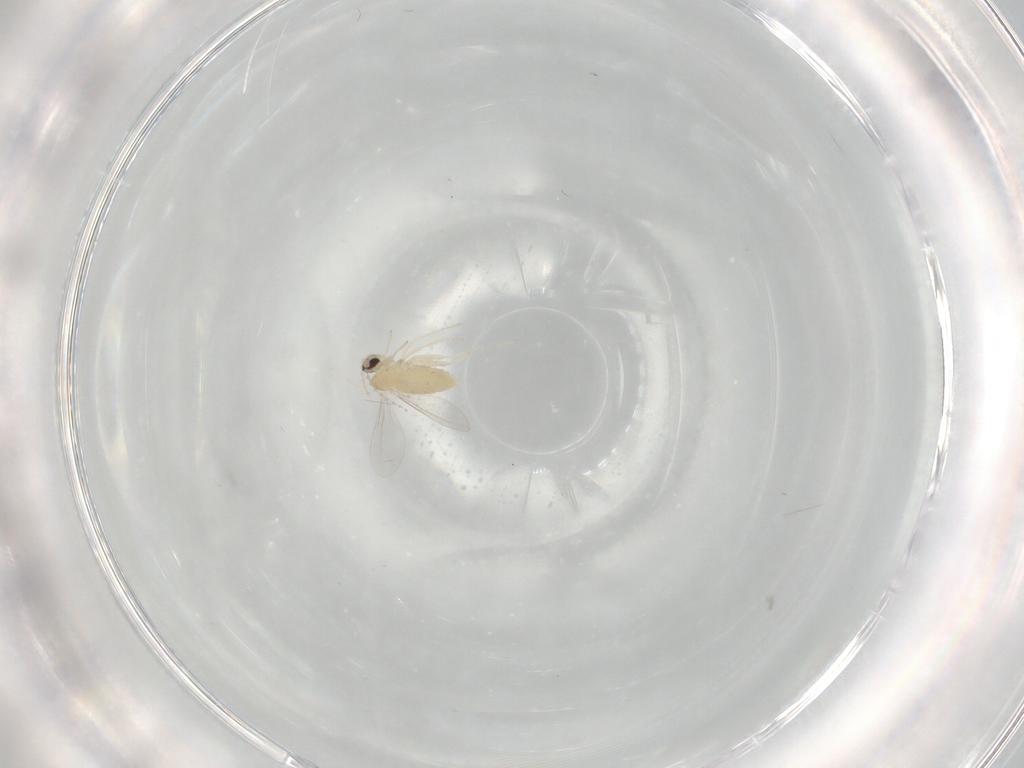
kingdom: Animalia
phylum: Arthropoda
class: Insecta
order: Diptera
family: Cecidomyiidae
